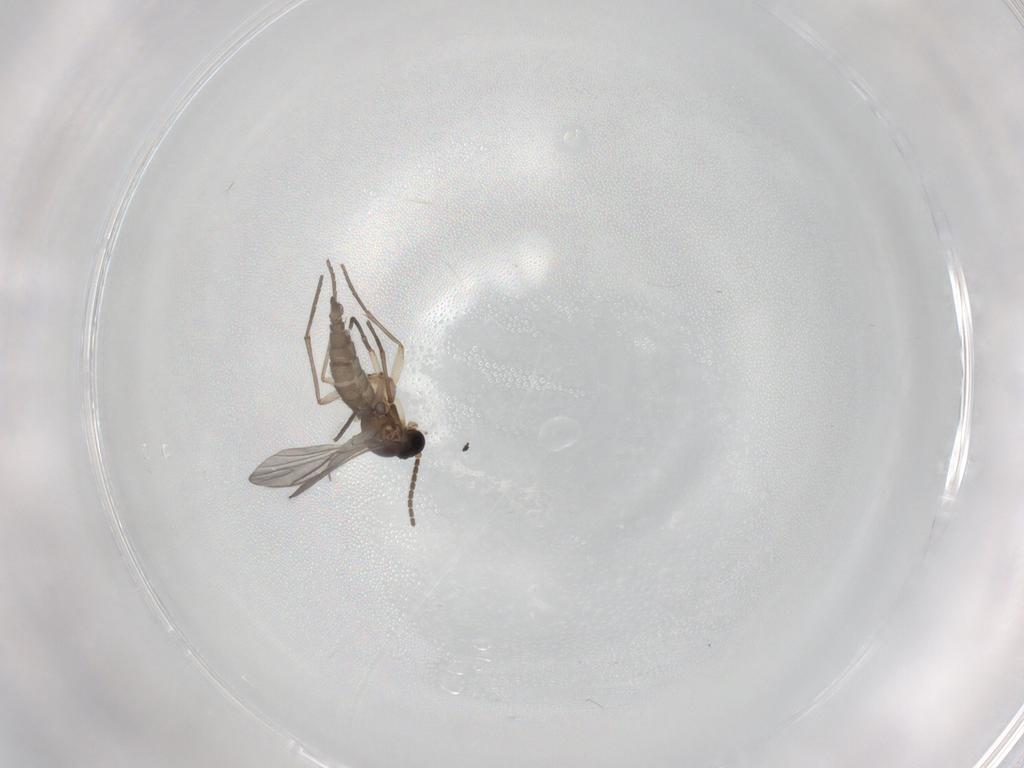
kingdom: Animalia
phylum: Arthropoda
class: Insecta
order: Diptera
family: Sciaridae
